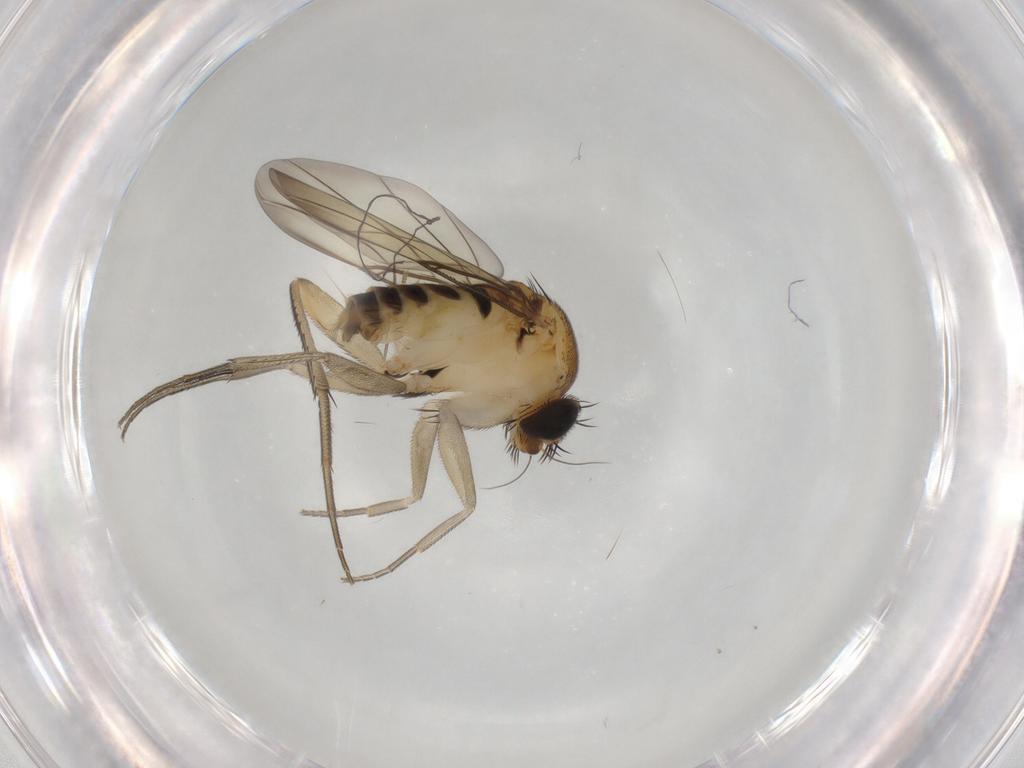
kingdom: Animalia
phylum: Arthropoda
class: Insecta
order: Diptera
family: Phoridae
